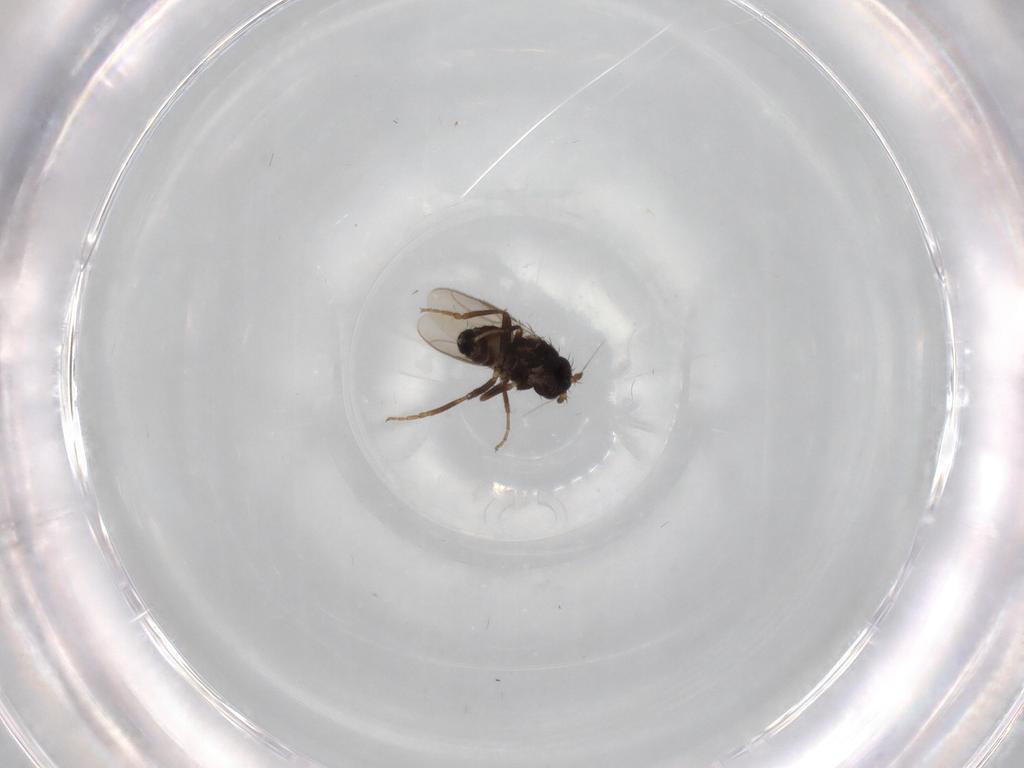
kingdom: Animalia
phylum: Arthropoda
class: Insecta
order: Diptera
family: Sphaeroceridae
